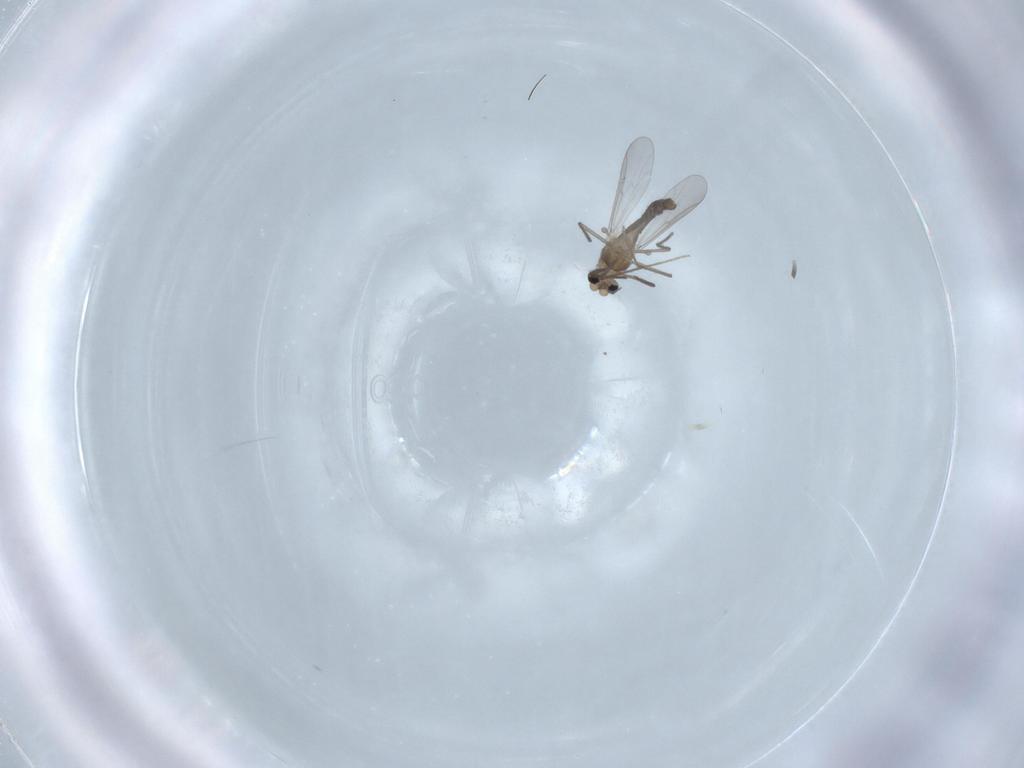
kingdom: Animalia
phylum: Arthropoda
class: Insecta
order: Diptera
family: Chironomidae
